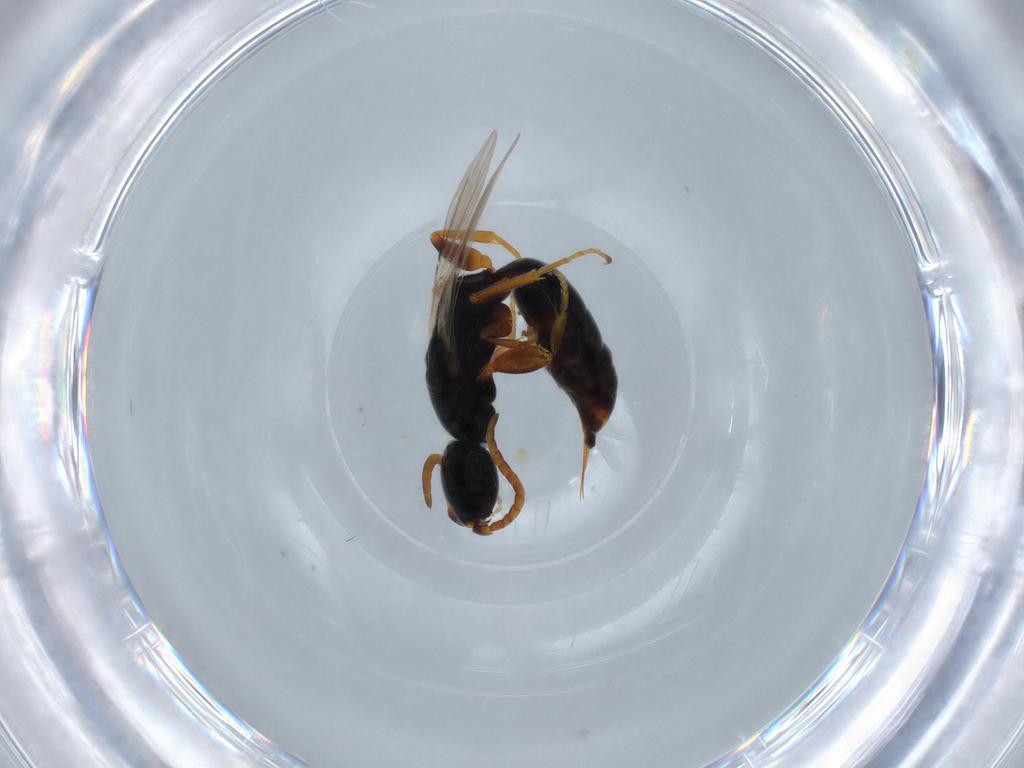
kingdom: Animalia
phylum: Arthropoda
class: Insecta
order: Hymenoptera
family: Bethylidae
